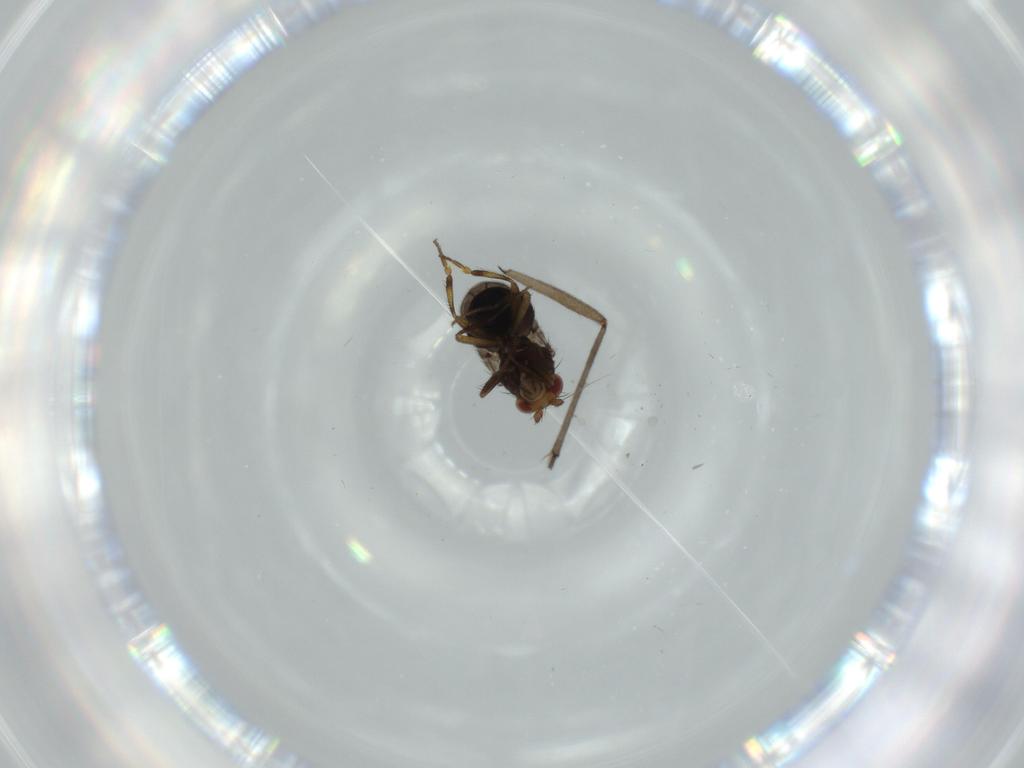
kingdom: Animalia
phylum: Arthropoda
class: Insecta
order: Diptera
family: Sciaridae
